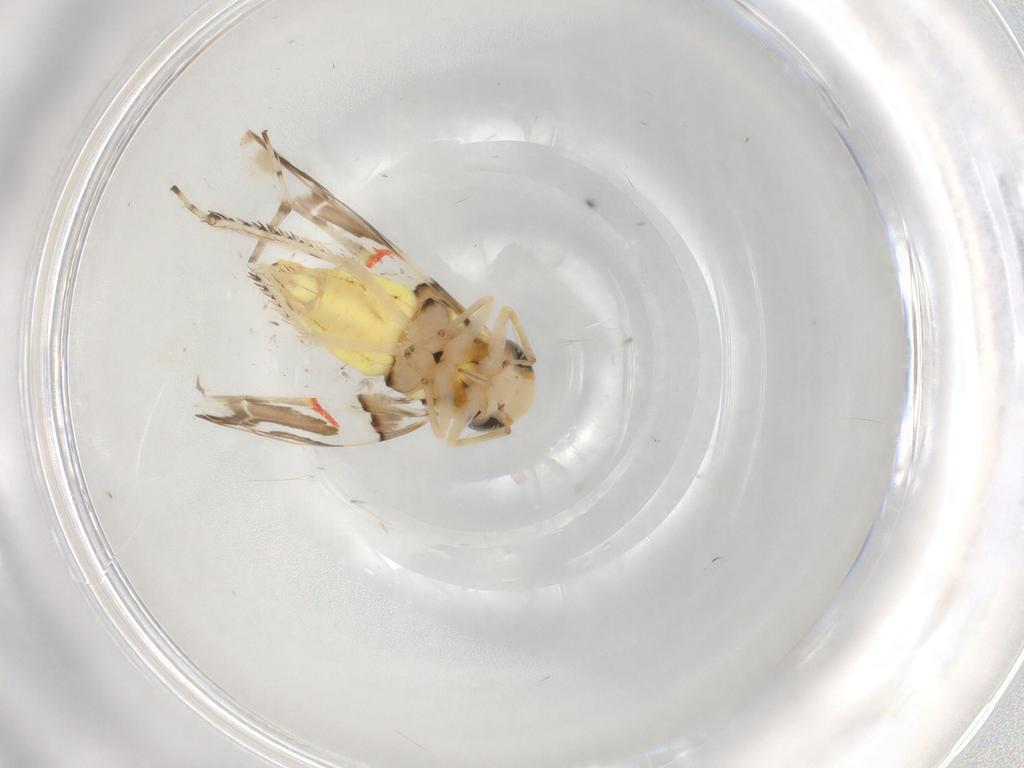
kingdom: Animalia
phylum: Arthropoda
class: Insecta
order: Hemiptera
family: Cicadellidae
